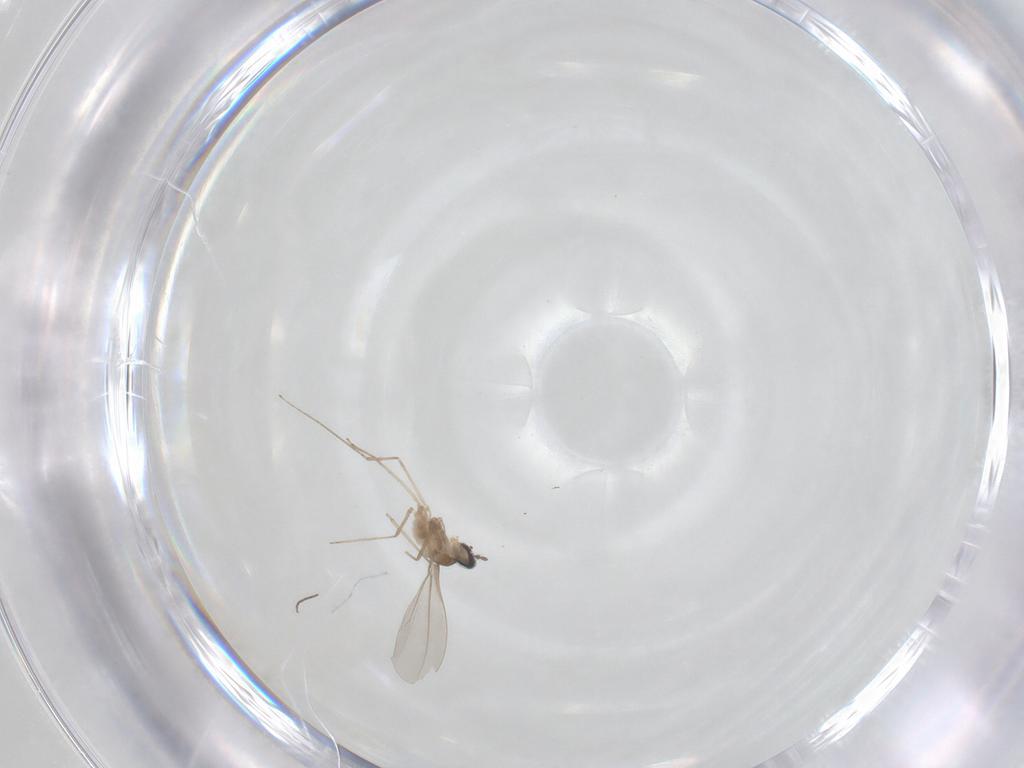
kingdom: Animalia
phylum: Arthropoda
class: Insecta
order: Diptera
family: Cecidomyiidae
